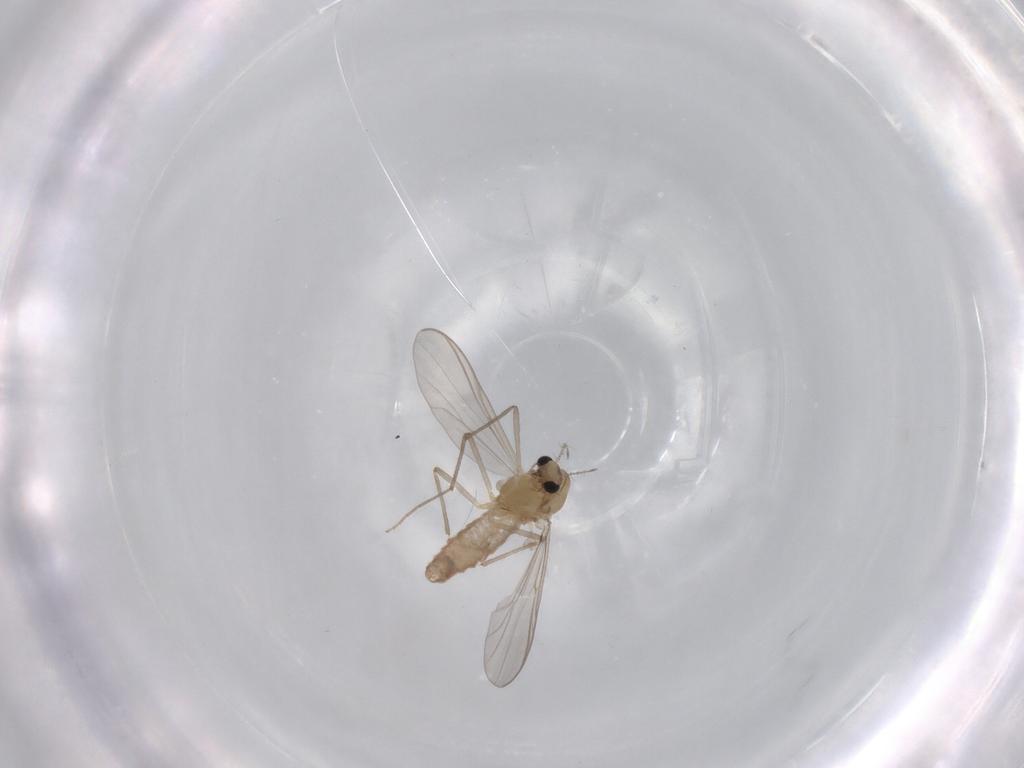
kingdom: Animalia
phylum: Arthropoda
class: Insecta
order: Diptera
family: Chironomidae
